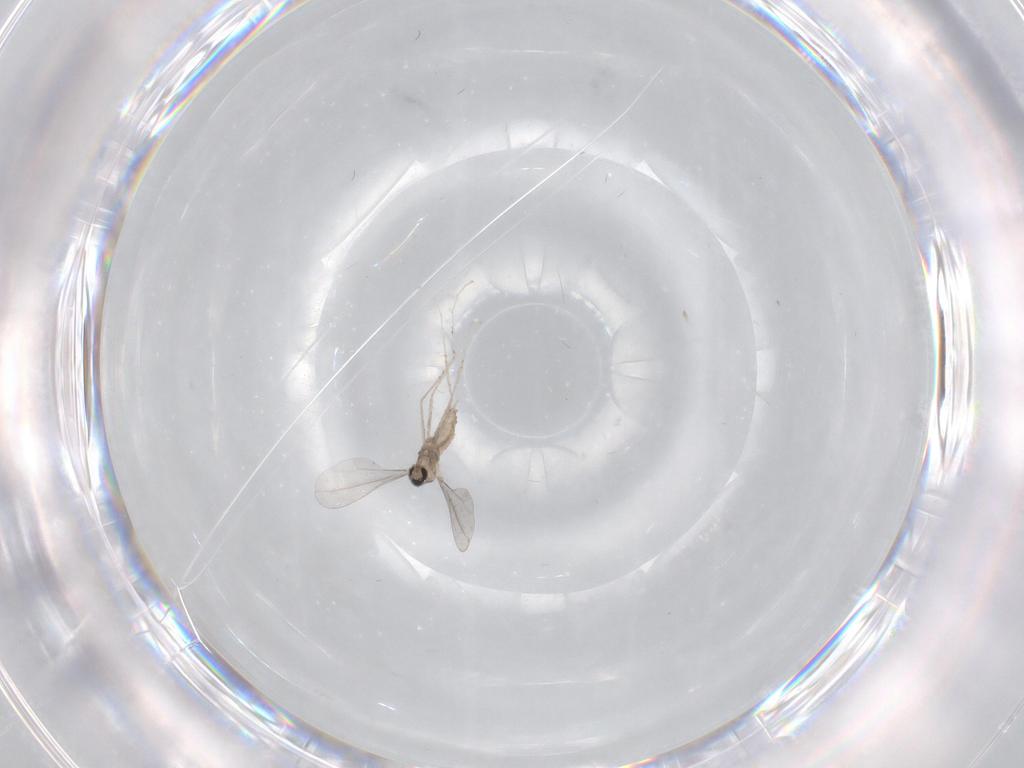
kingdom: Animalia
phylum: Arthropoda
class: Insecta
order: Diptera
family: Cecidomyiidae
